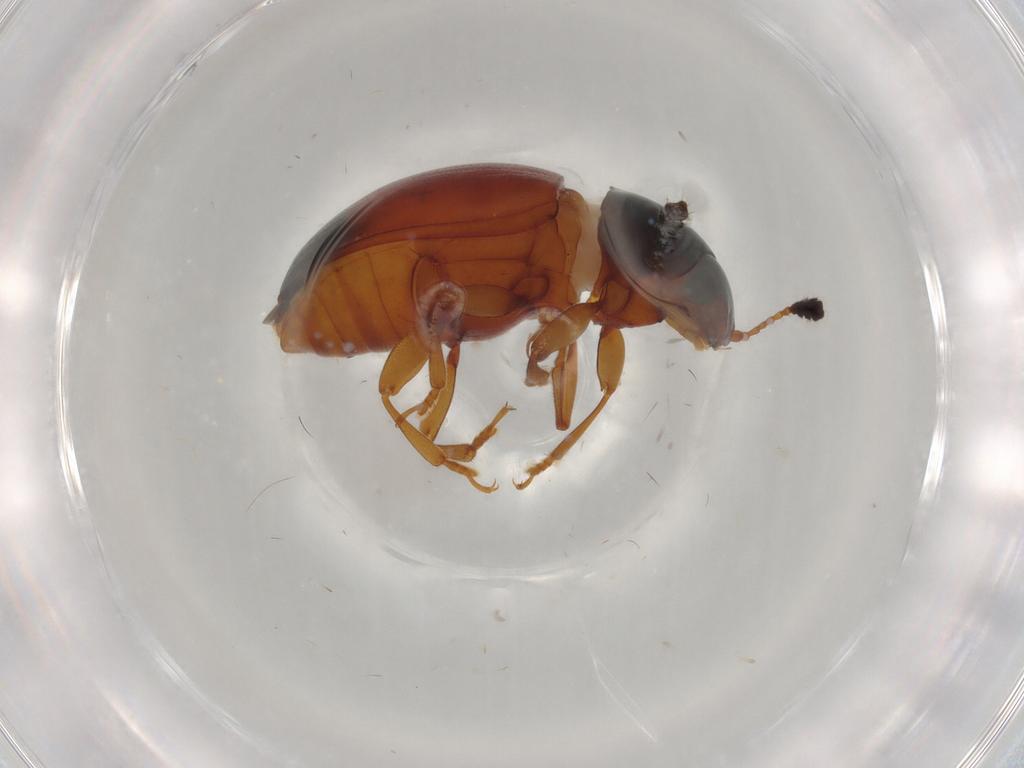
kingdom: Animalia
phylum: Arthropoda
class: Insecta
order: Coleoptera
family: Erotylidae
